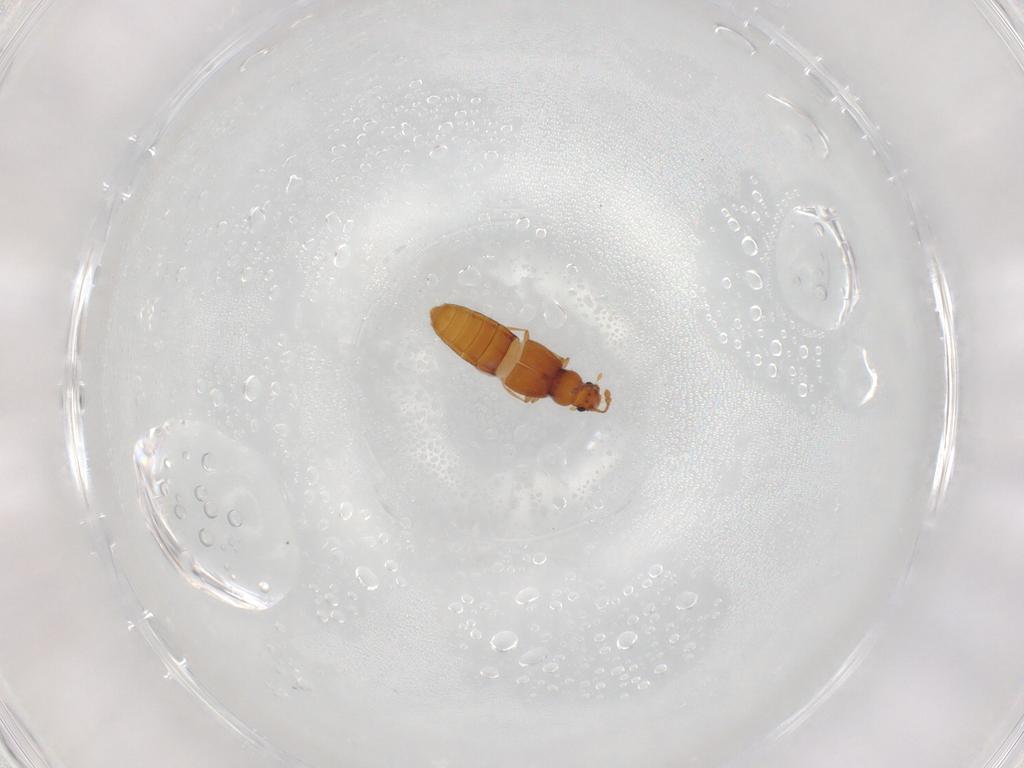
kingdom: Animalia
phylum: Arthropoda
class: Insecta
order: Coleoptera
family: Staphylinidae
